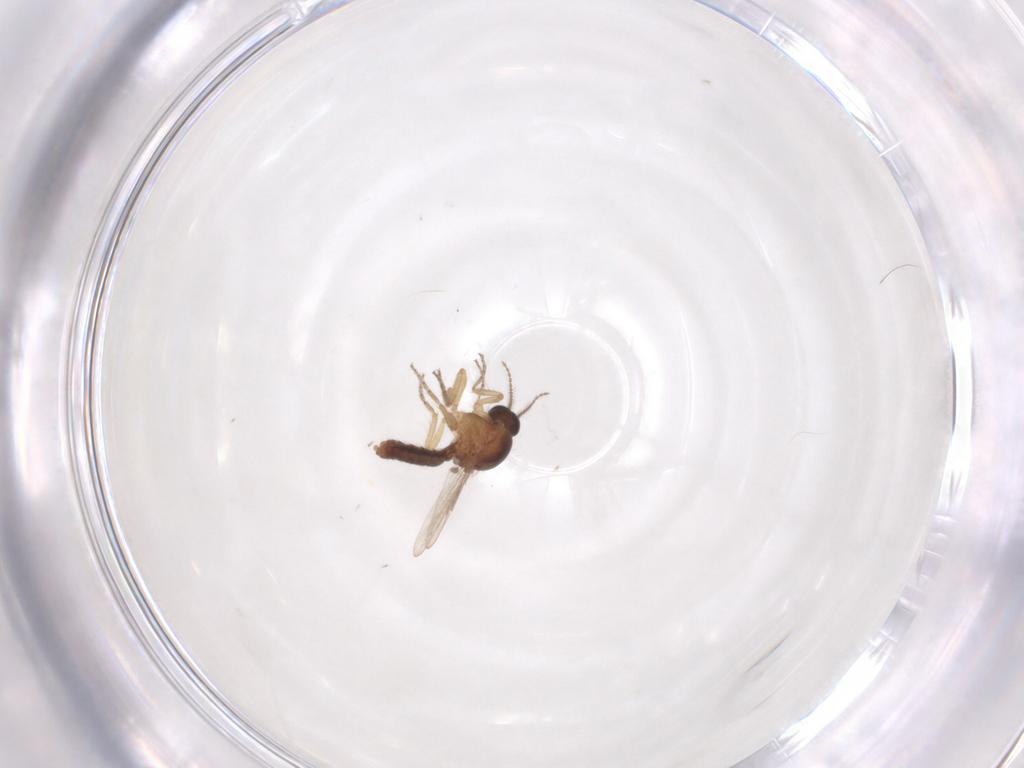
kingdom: Animalia
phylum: Arthropoda
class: Insecta
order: Diptera
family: Ceratopogonidae
